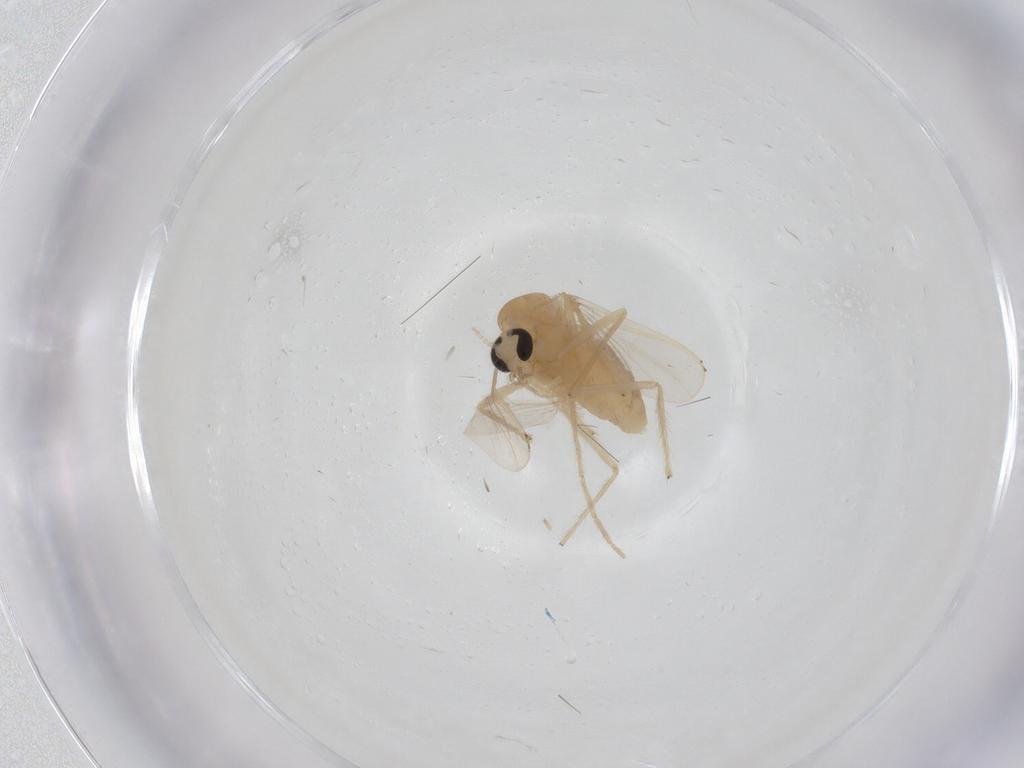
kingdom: Animalia
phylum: Arthropoda
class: Insecta
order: Diptera
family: Chironomidae
